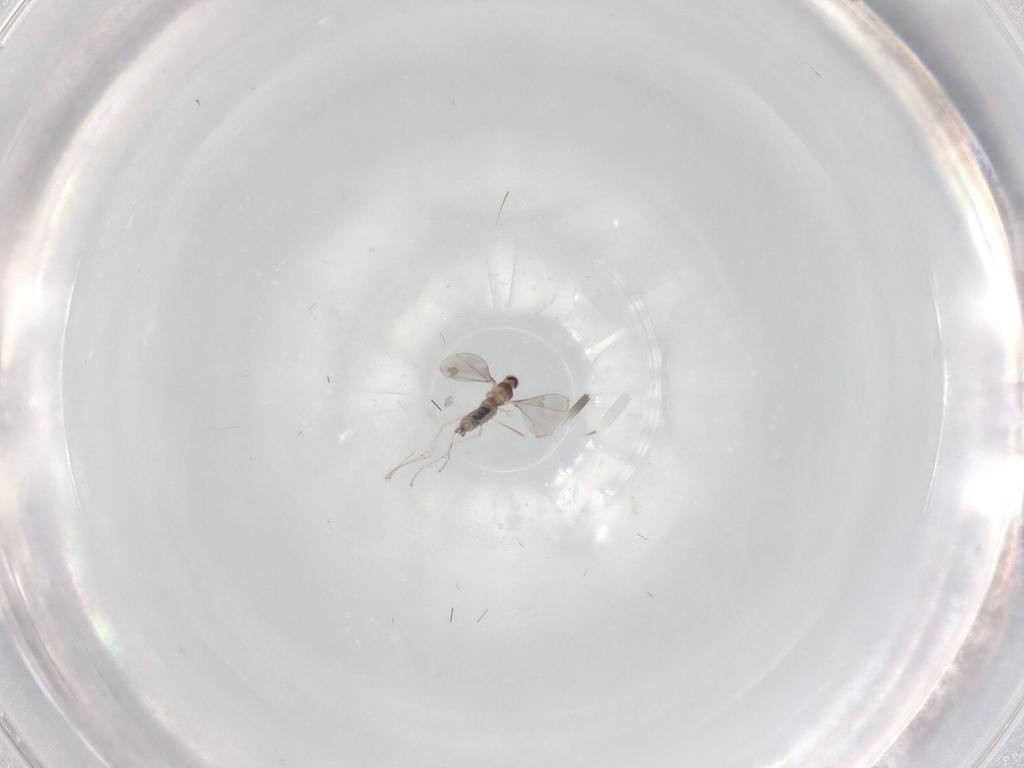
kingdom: Animalia
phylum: Arthropoda
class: Insecta
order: Diptera
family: Cecidomyiidae
